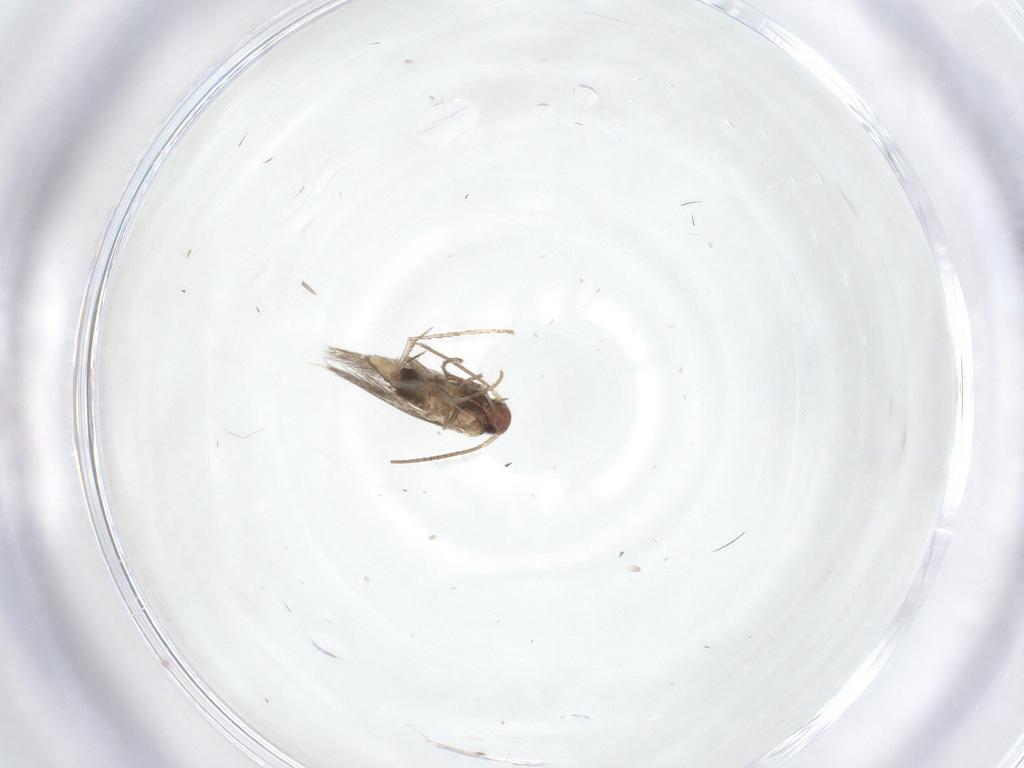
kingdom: Animalia
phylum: Arthropoda
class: Insecta
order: Lepidoptera
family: Gracillariidae
